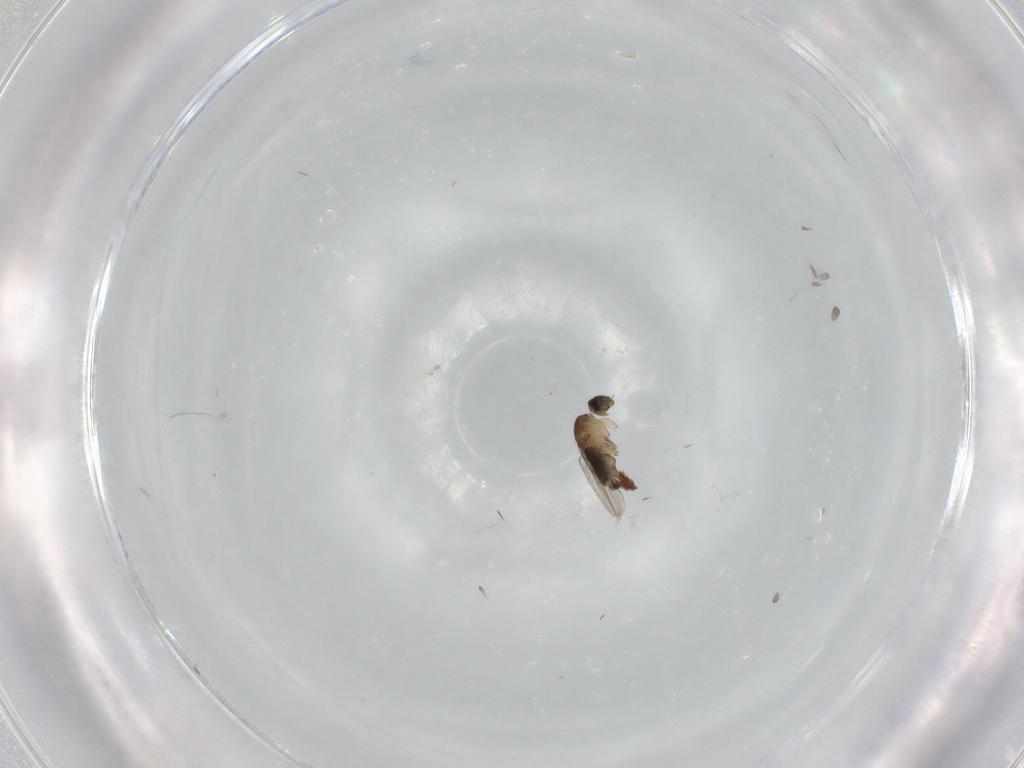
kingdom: Animalia
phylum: Arthropoda
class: Insecta
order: Diptera
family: Phoridae
